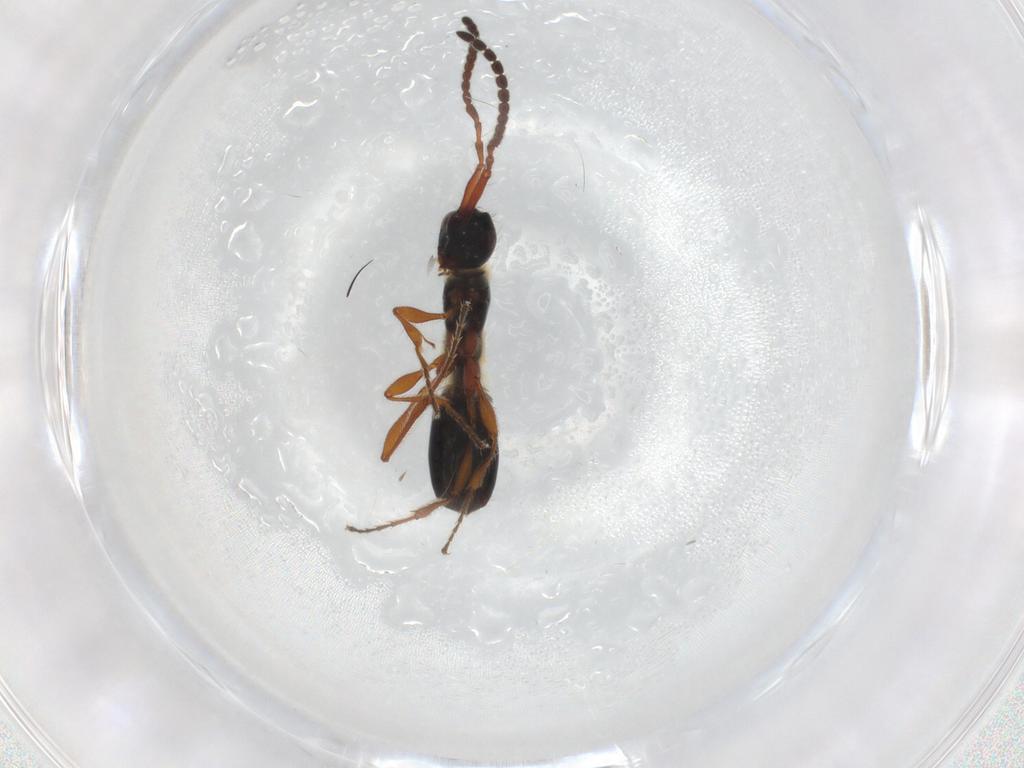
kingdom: Animalia
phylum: Arthropoda
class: Insecta
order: Hymenoptera
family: Diapriidae
